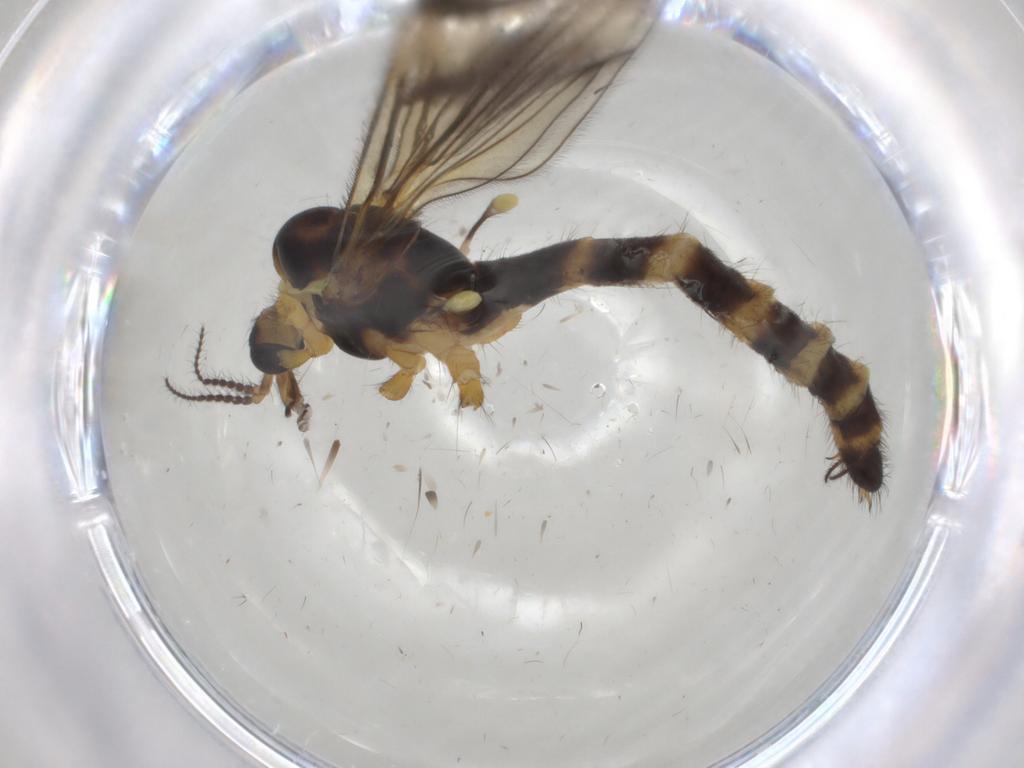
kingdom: Animalia
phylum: Arthropoda
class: Insecta
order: Diptera
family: Limoniidae
